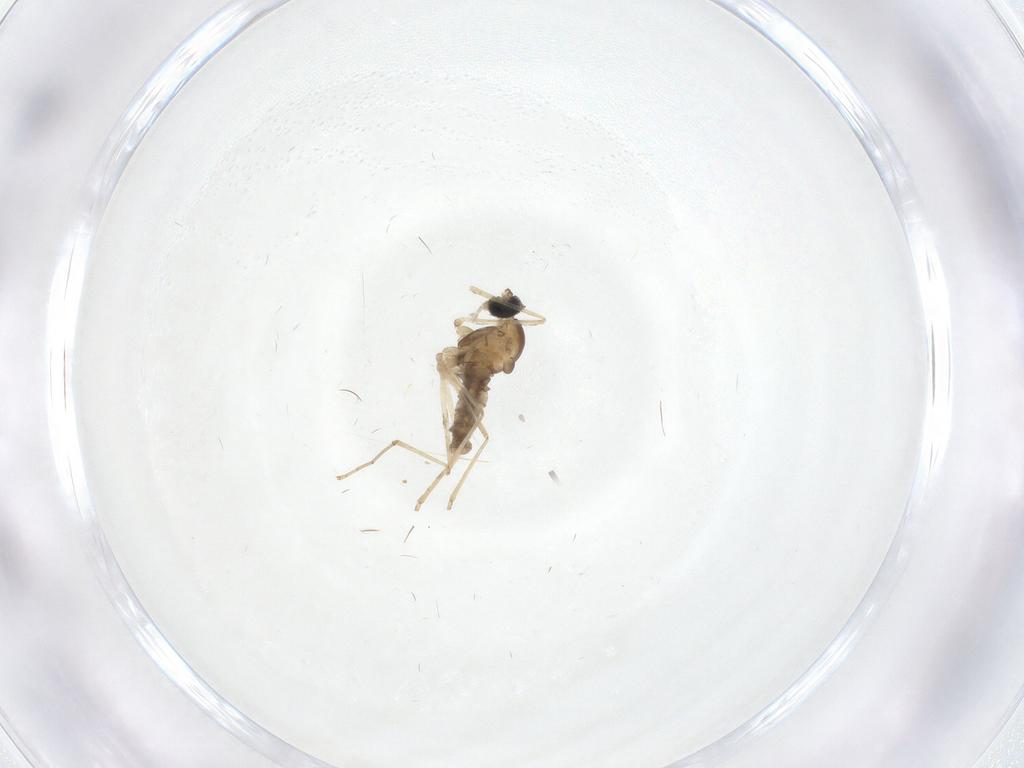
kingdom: Animalia
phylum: Arthropoda
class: Insecta
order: Diptera
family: Cecidomyiidae
